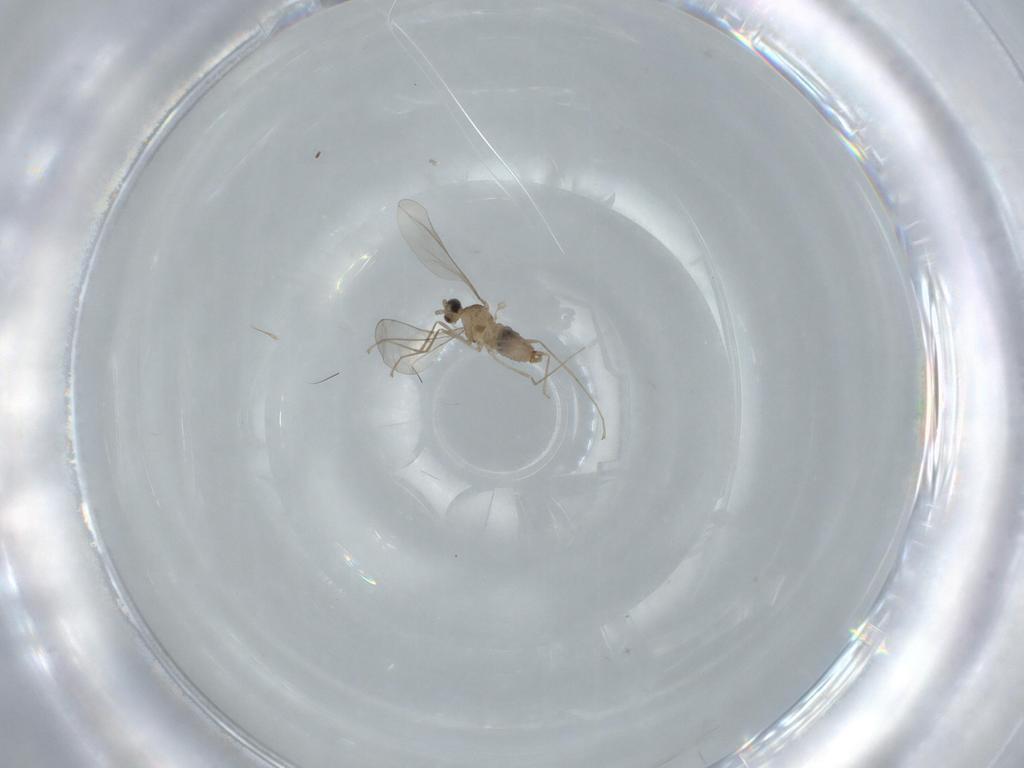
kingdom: Animalia
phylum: Arthropoda
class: Insecta
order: Diptera
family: Cecidomyiidae
